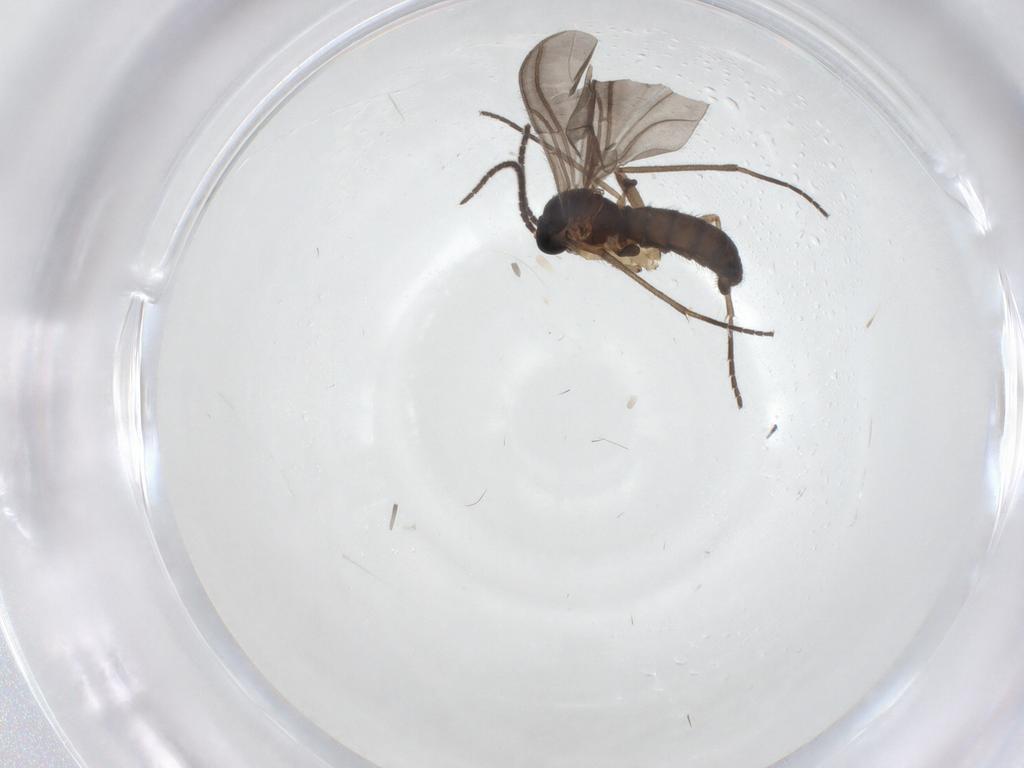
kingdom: Animalia
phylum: Arthropoda
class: Insecta
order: Diptera
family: Sciaridae
